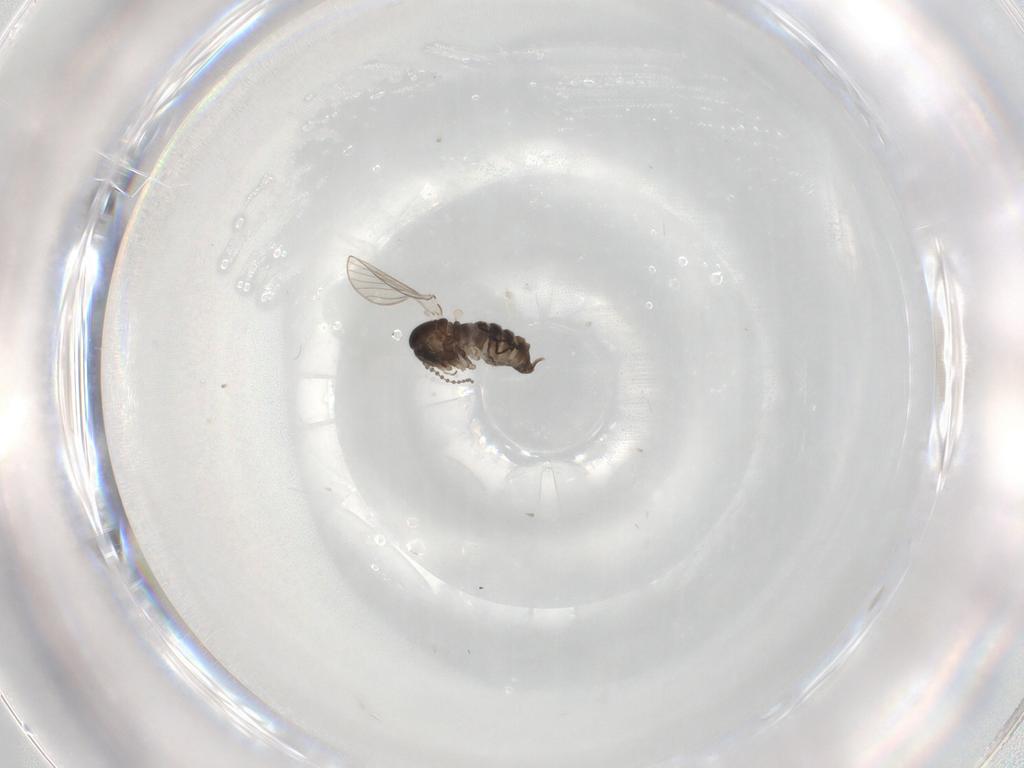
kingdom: Animalia
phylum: Arthropoda
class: Insecta
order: Diptera
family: Psychodidae
